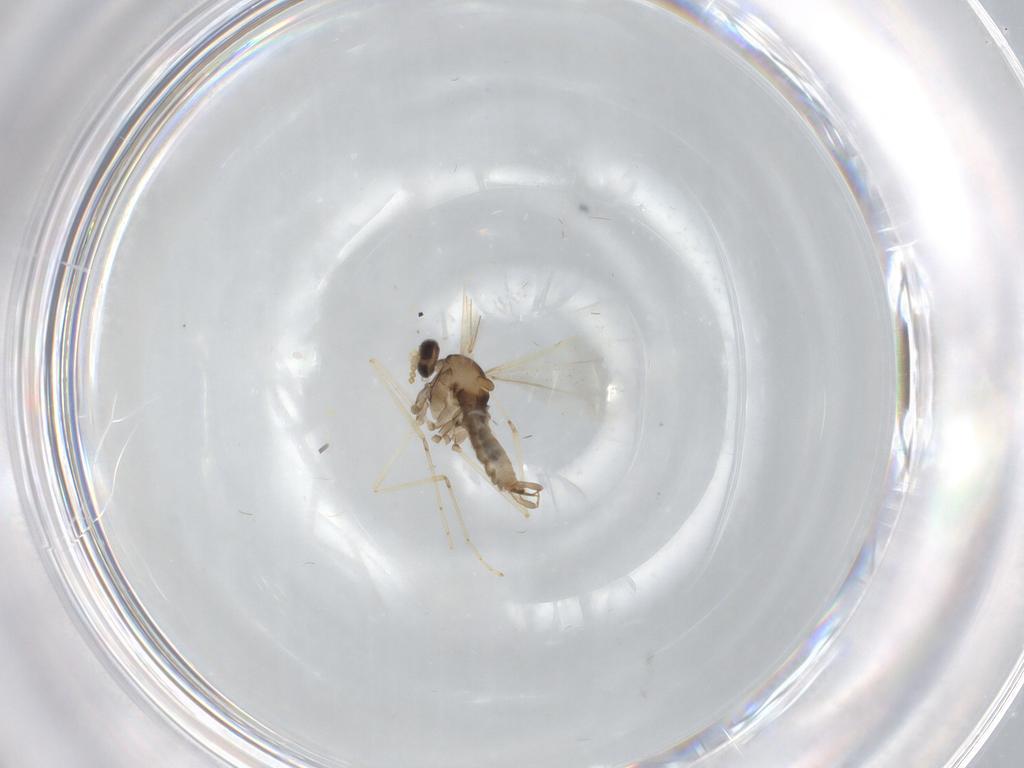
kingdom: Animalia
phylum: Arthropoda
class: Insecta
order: Diptera
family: Cecidomyiidae
